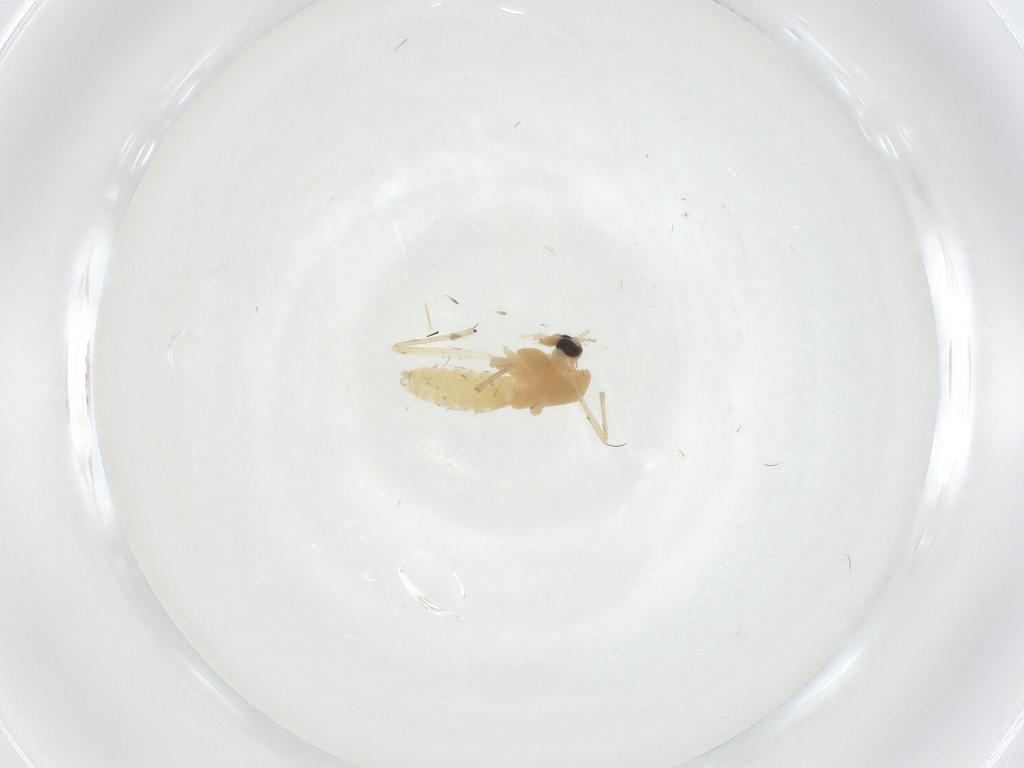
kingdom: Animalia
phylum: Arthropoda
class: Insecta
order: Diptera
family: Chironomidae
